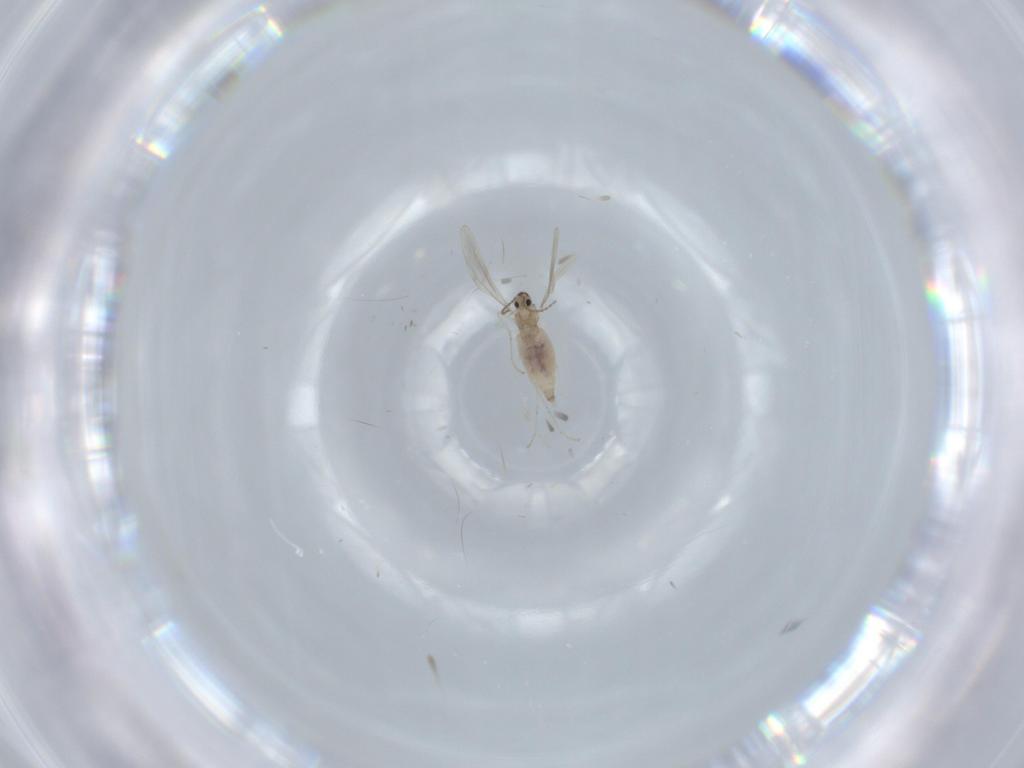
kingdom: Animalia
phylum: Arthropoda
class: Insecta
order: Diptera
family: Cecidomyiidae
